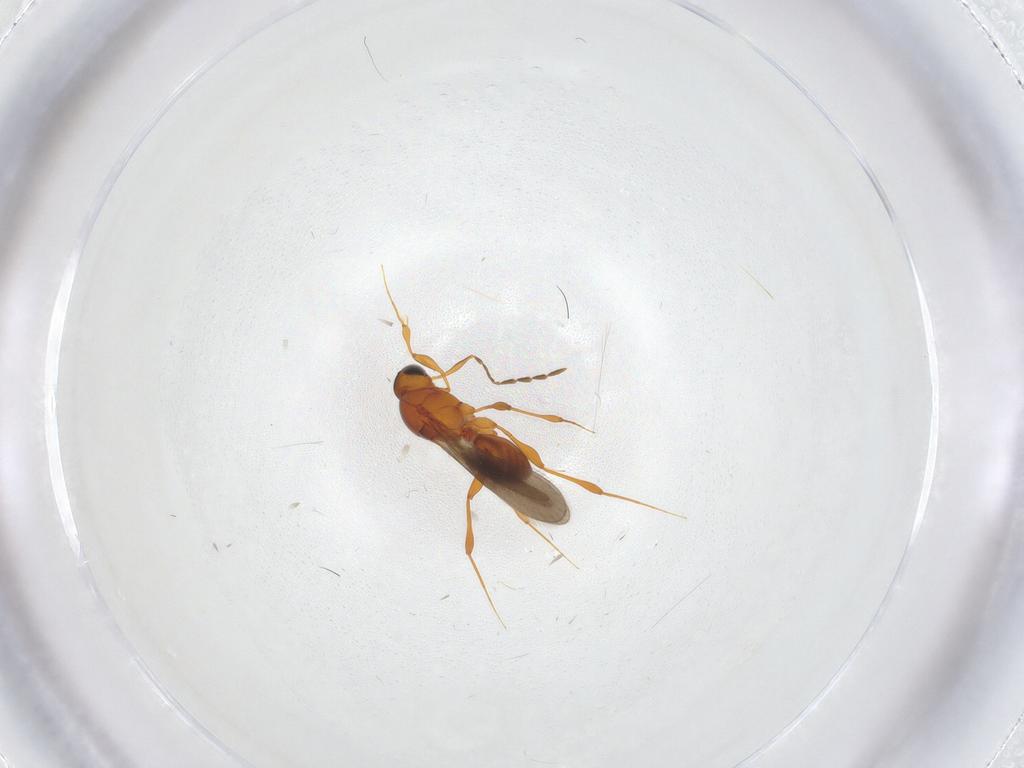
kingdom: Animalia
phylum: Arthropoda
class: Insecta
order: Hymenoptera
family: Platygastridae
